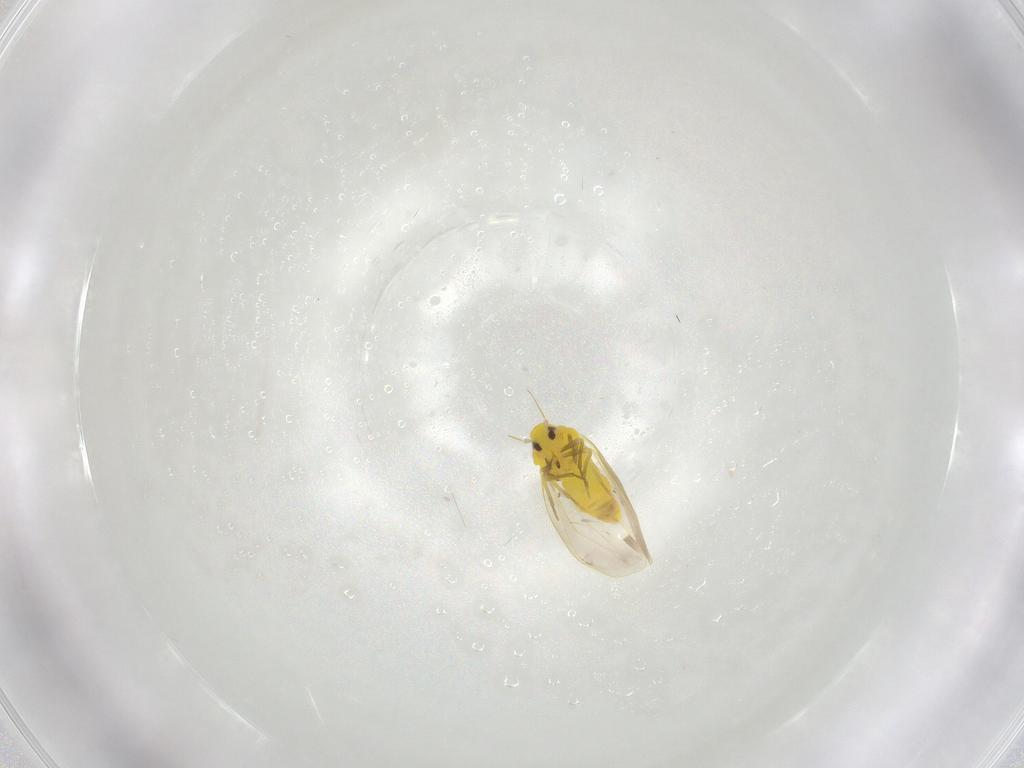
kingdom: Animalia
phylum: Arthropoda
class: Insecta
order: Hemiptera
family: Aleyrodidae
